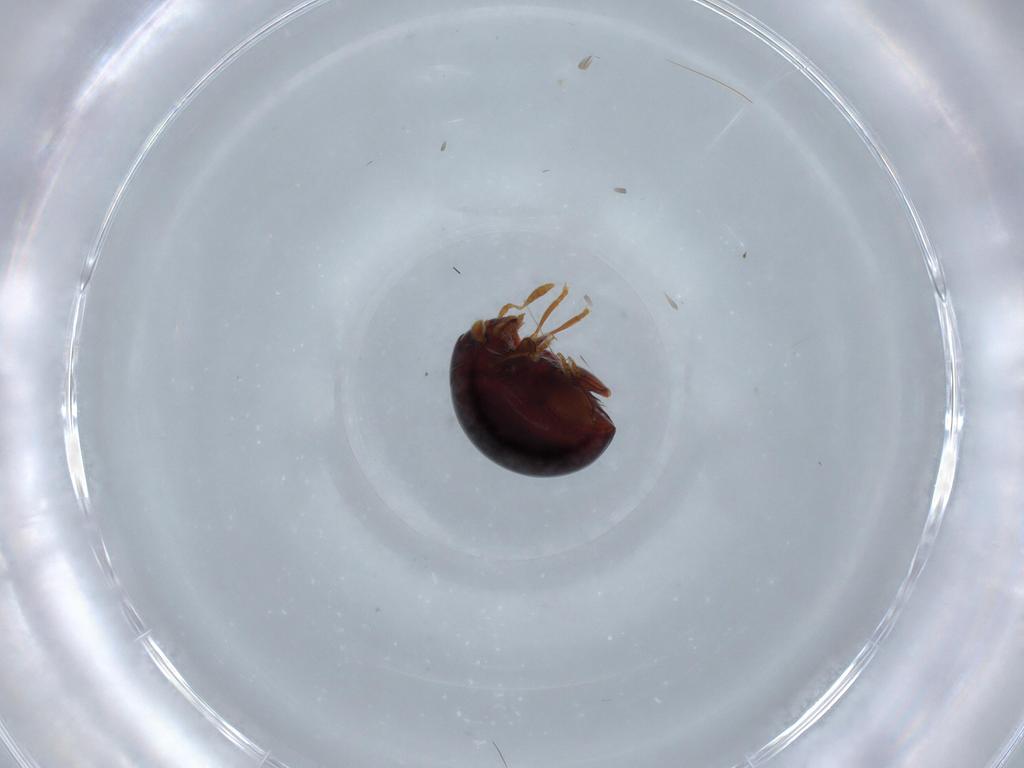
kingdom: Animalia
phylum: Arthropoda
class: Insecta
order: Coleoptera
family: Chrysomelidae
